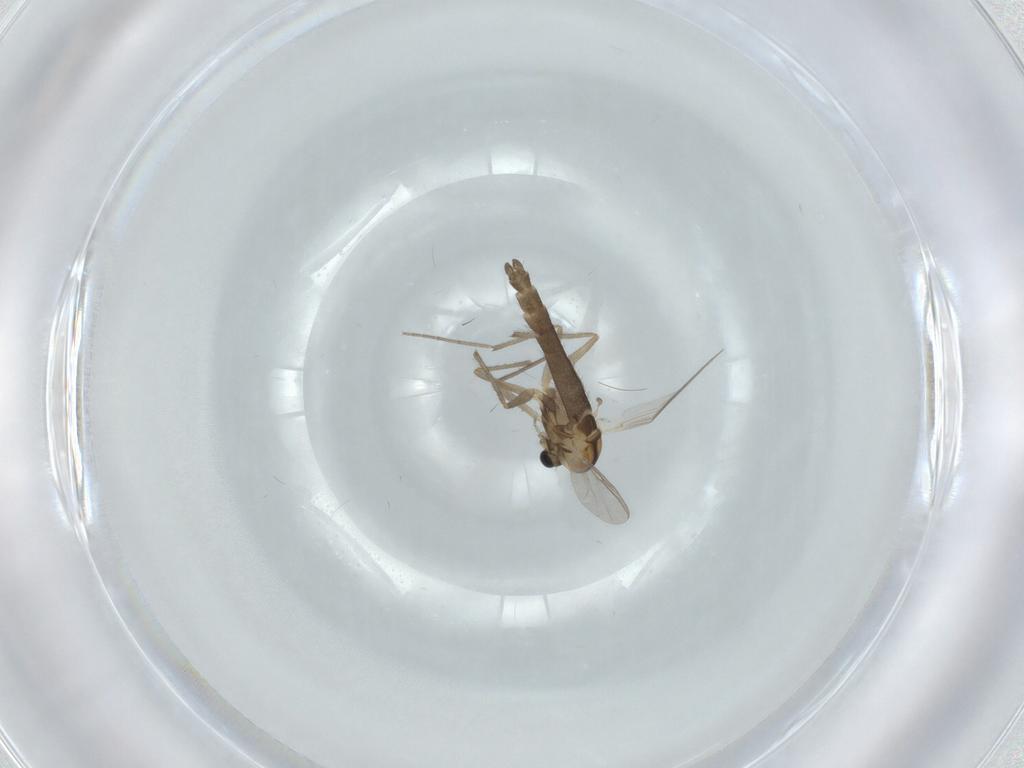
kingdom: Animalia
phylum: Arthropoda
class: Insecta
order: Diptera
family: Chironomidae
